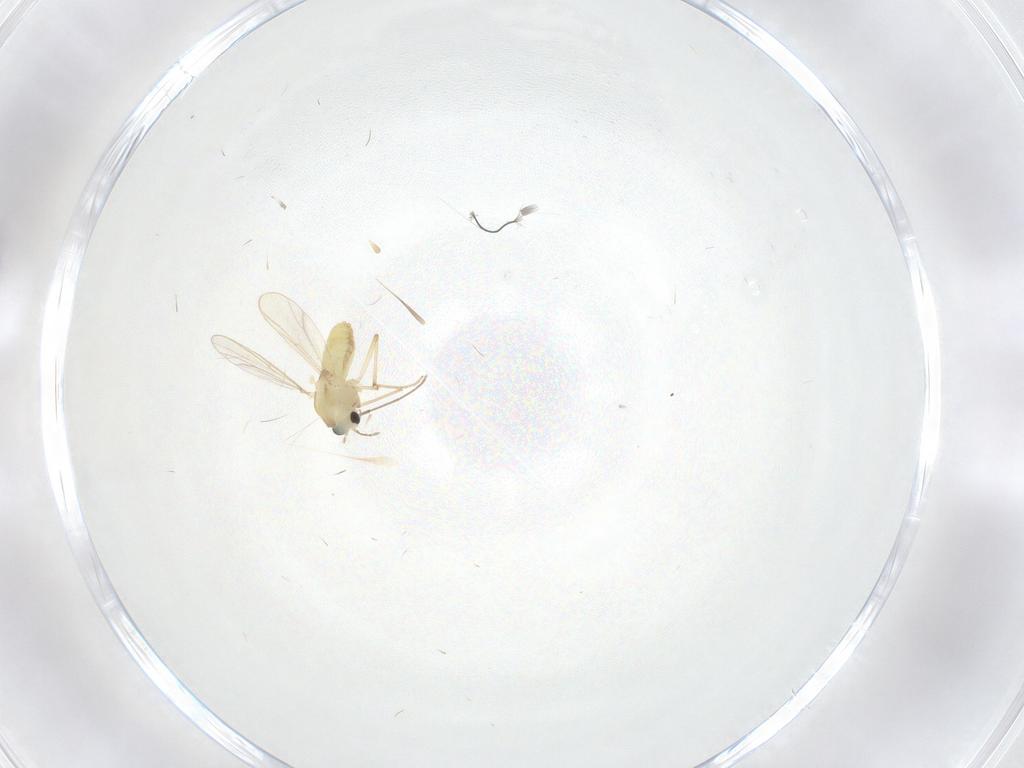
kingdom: Animalia
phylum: Arthropoda
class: Insecta
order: Diptera
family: Chironomidae
